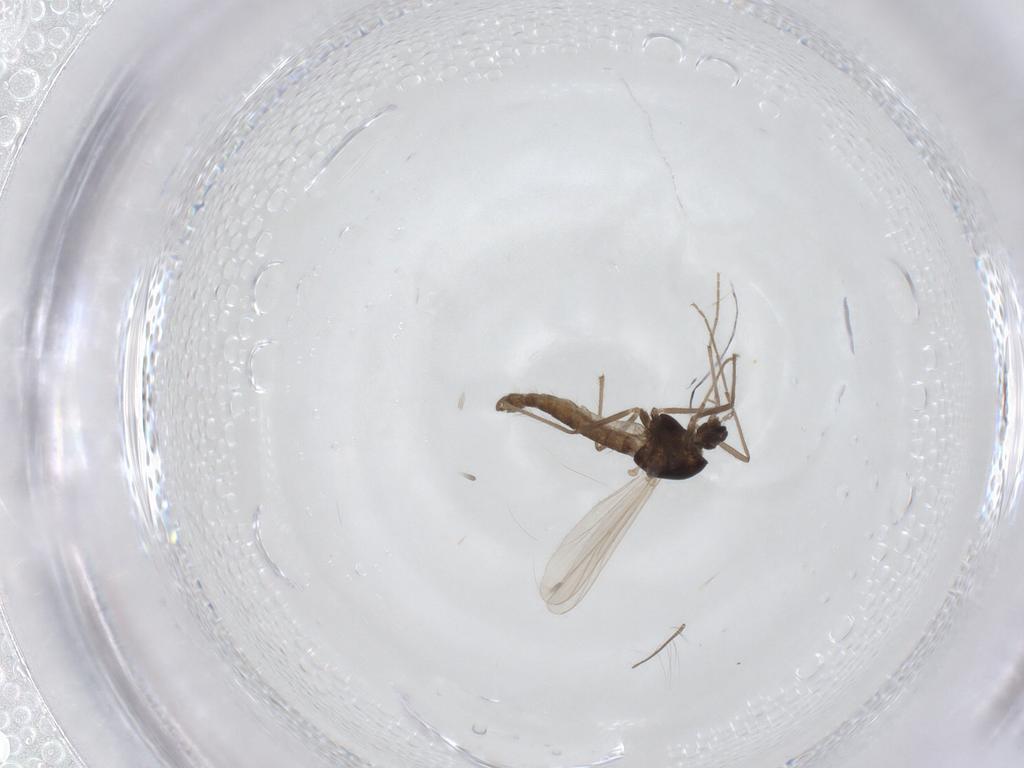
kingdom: Animalia
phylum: Arthropoda
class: Insecta
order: Diptera
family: Chironomidae
